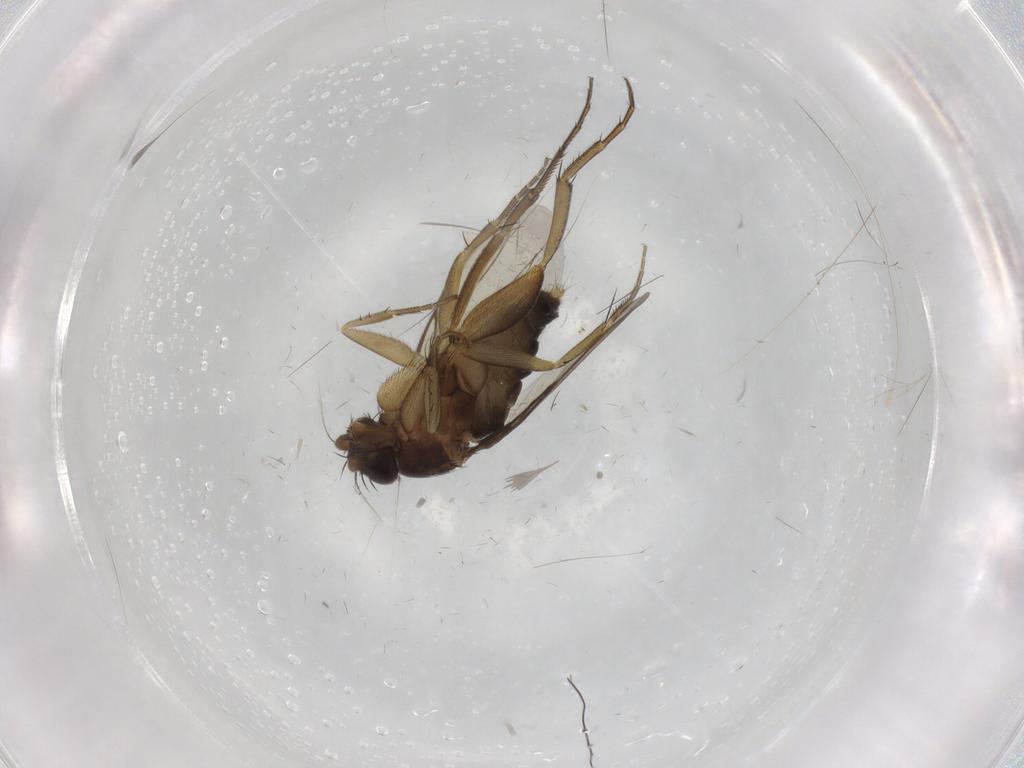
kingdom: Animalia
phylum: Arthropoda
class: Insecta
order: Diptera
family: Phoridae
